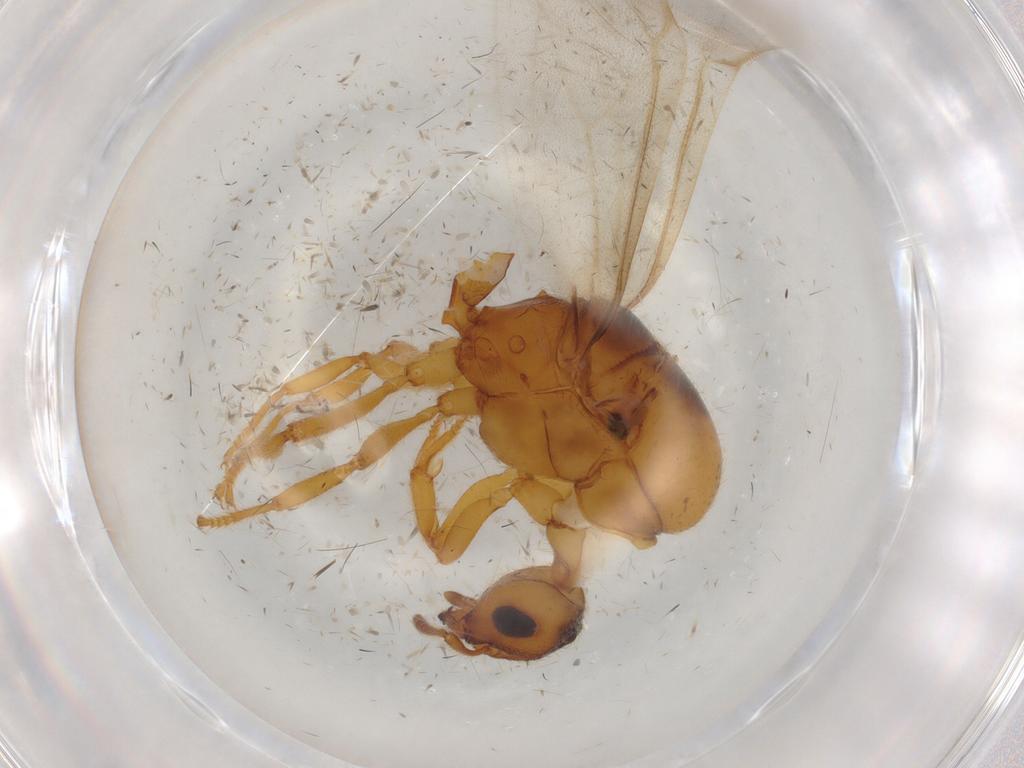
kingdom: Animalia
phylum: Arthropoda
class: Insecta
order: Hymenoptera
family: Formicidae
